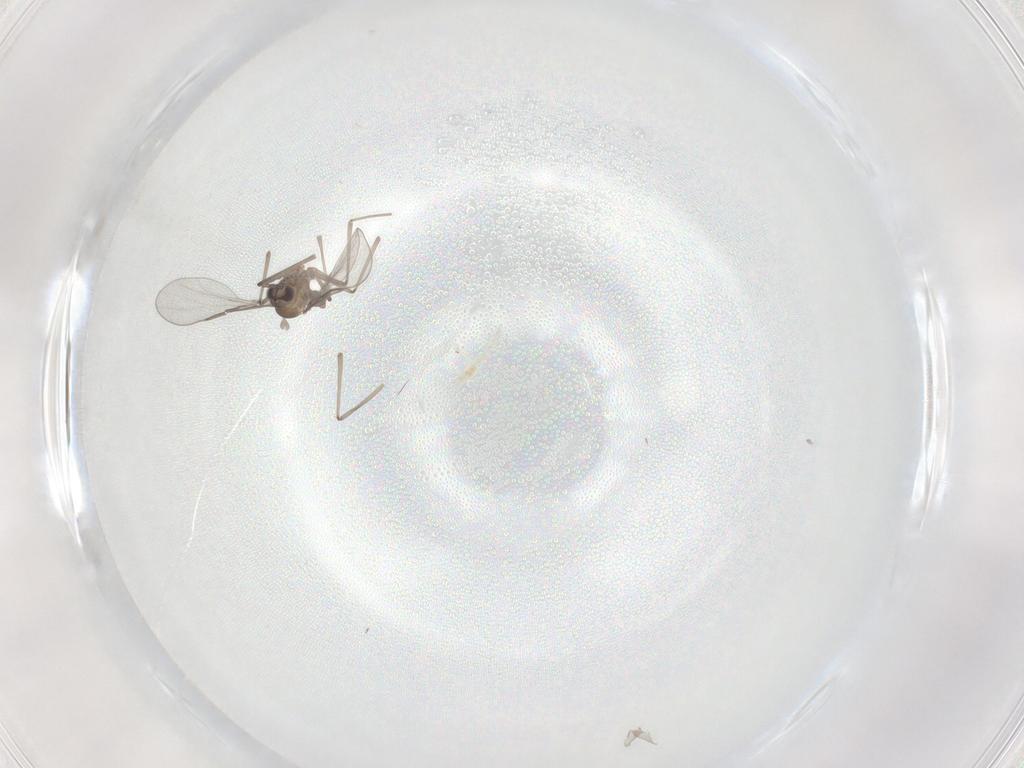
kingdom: Animalia
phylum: Arthropoda
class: Insecta
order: Diptera
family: Cecidomyiidae
